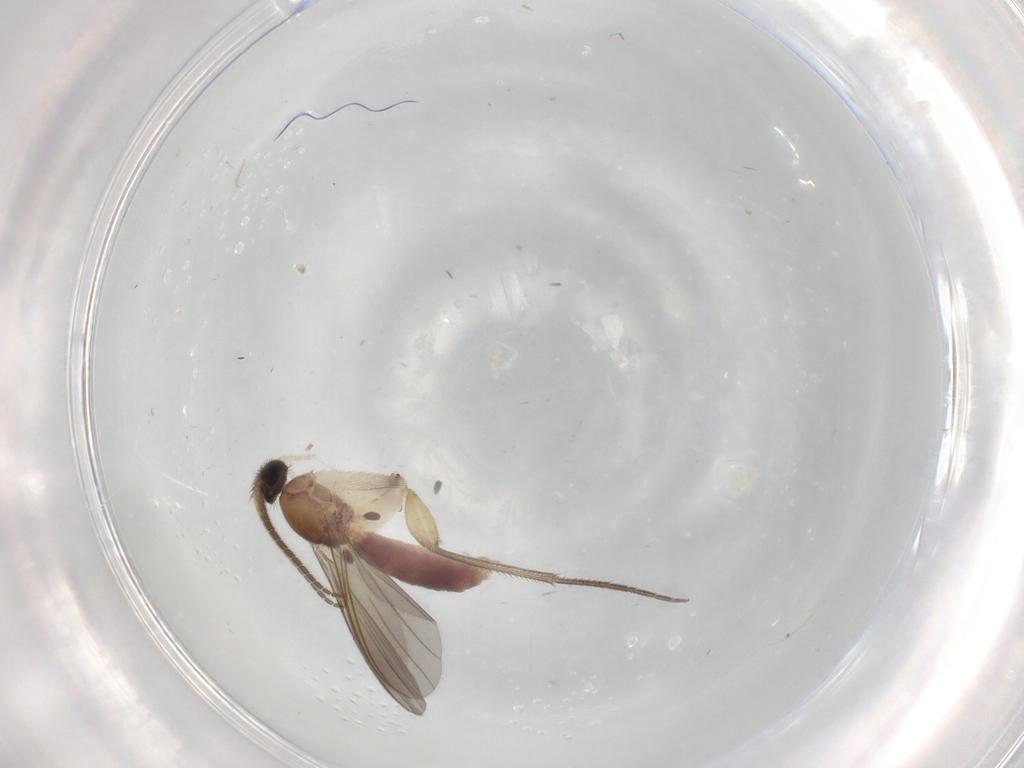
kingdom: Animalia
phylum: Arthropoda
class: Insecta
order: Diptera
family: Mycetophilidae
